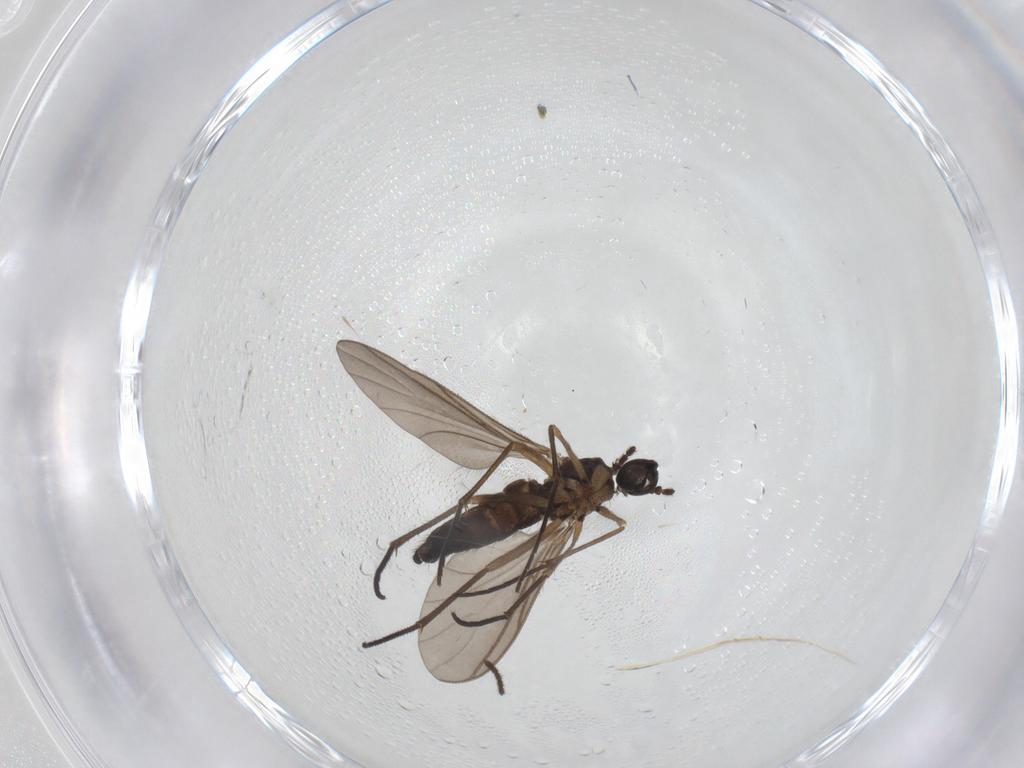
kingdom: Animalia
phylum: Arthropoda
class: Insecta
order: Diptera
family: Sciaridae
